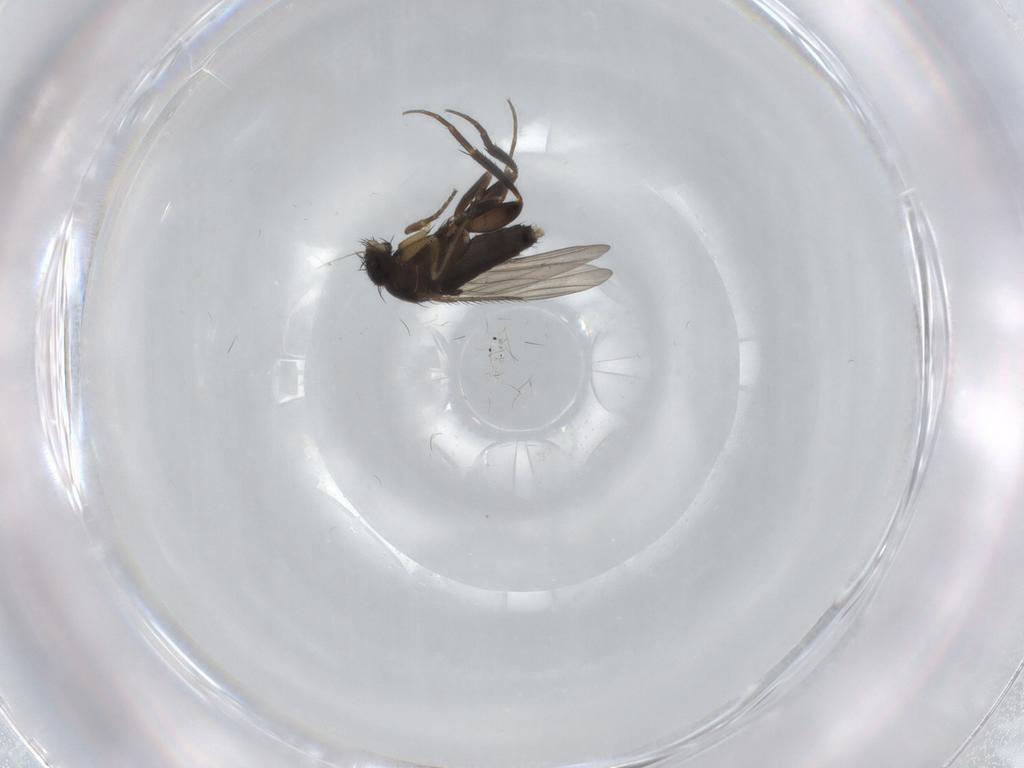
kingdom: Animalia
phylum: Arthropoda
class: Insecta
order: Diptera
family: Phoridae
